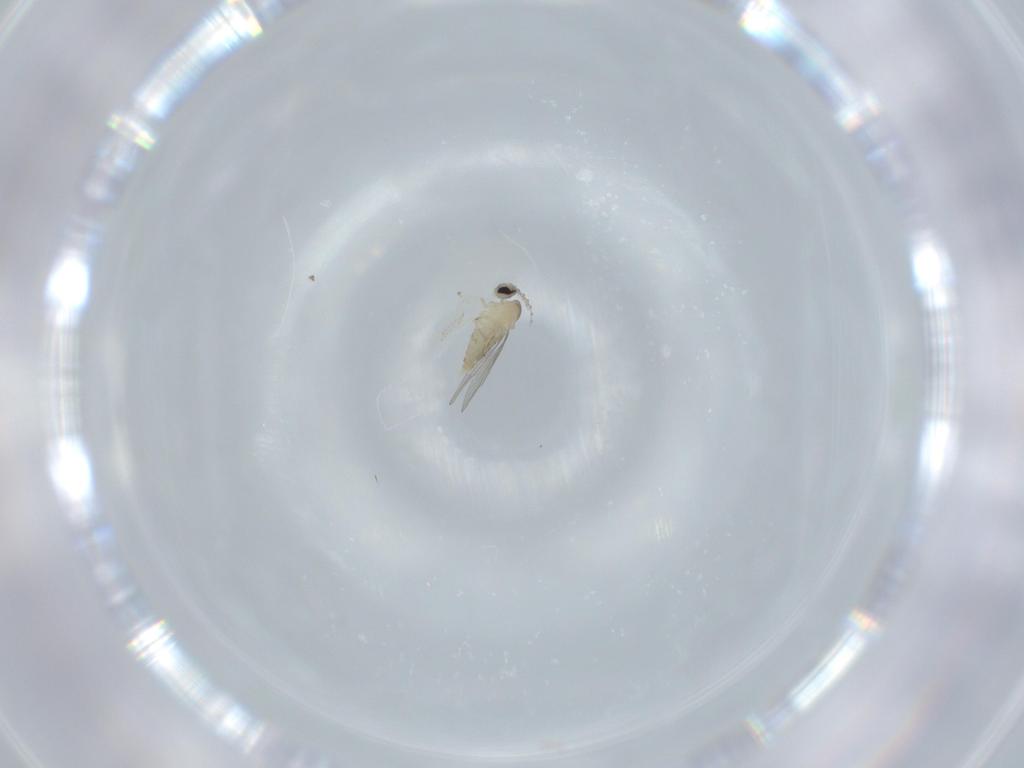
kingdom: Animalia
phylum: Arthropoda
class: Insecta
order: Diptera
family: Cecidomyiidae
